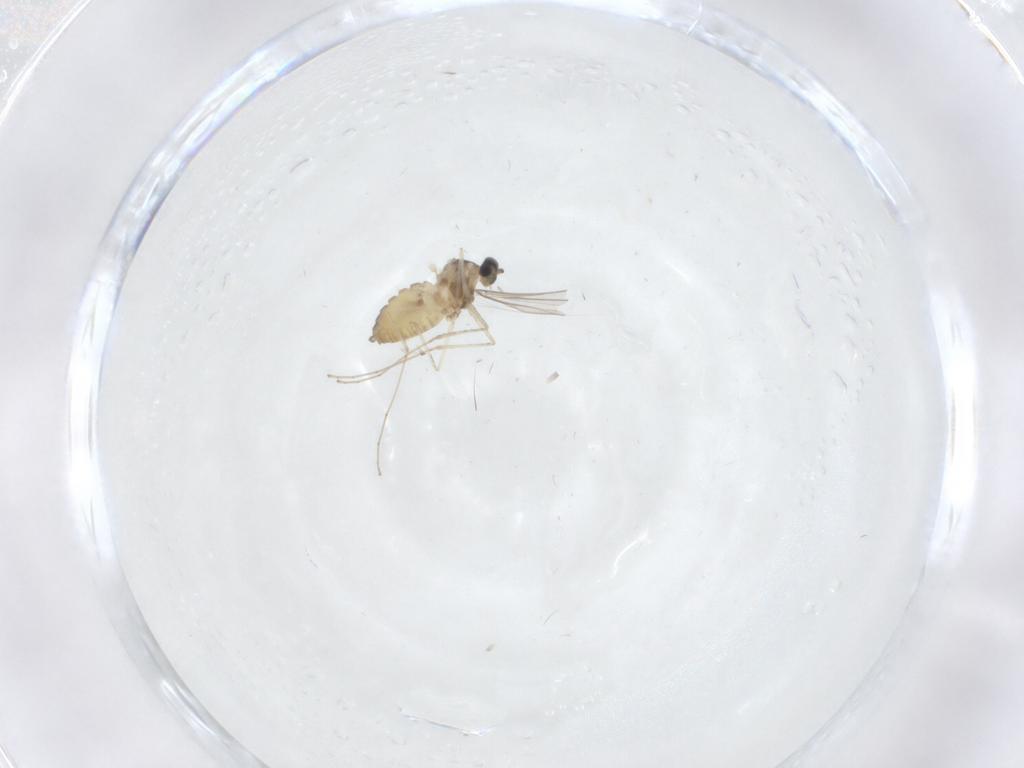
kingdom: Animalia
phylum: Arthropoda
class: Insecta
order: Diptera
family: Cecidomyiidae
